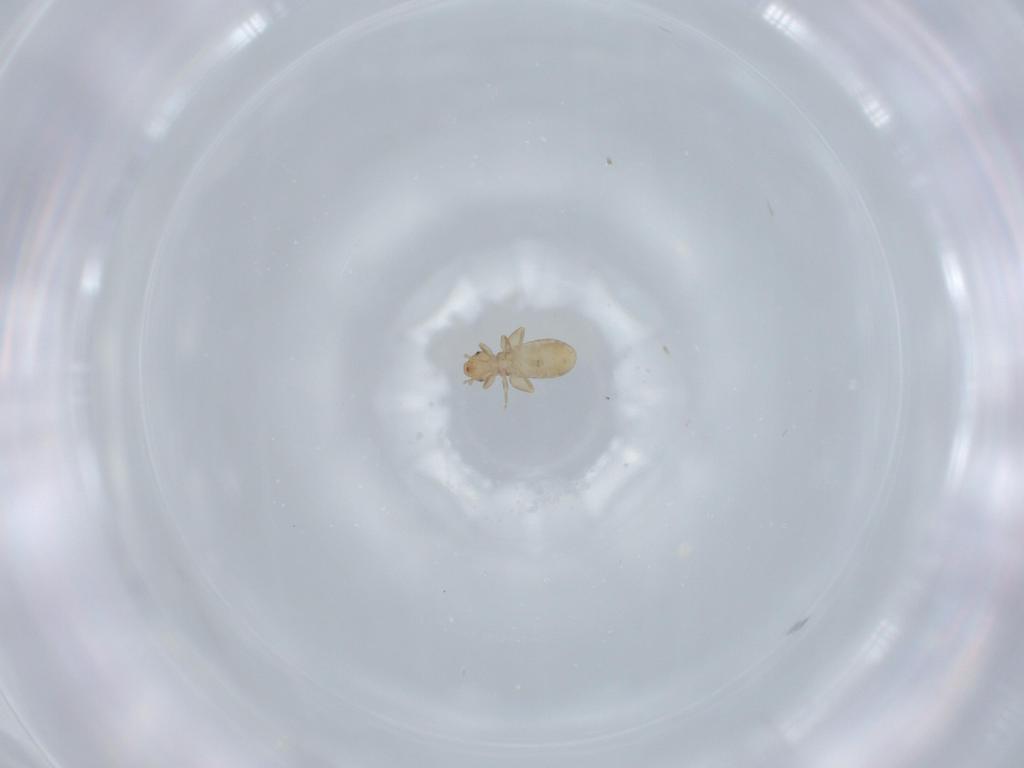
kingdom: Animalia
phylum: Arthropoda
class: Insecta
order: Psocodea
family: Liposcelididae
